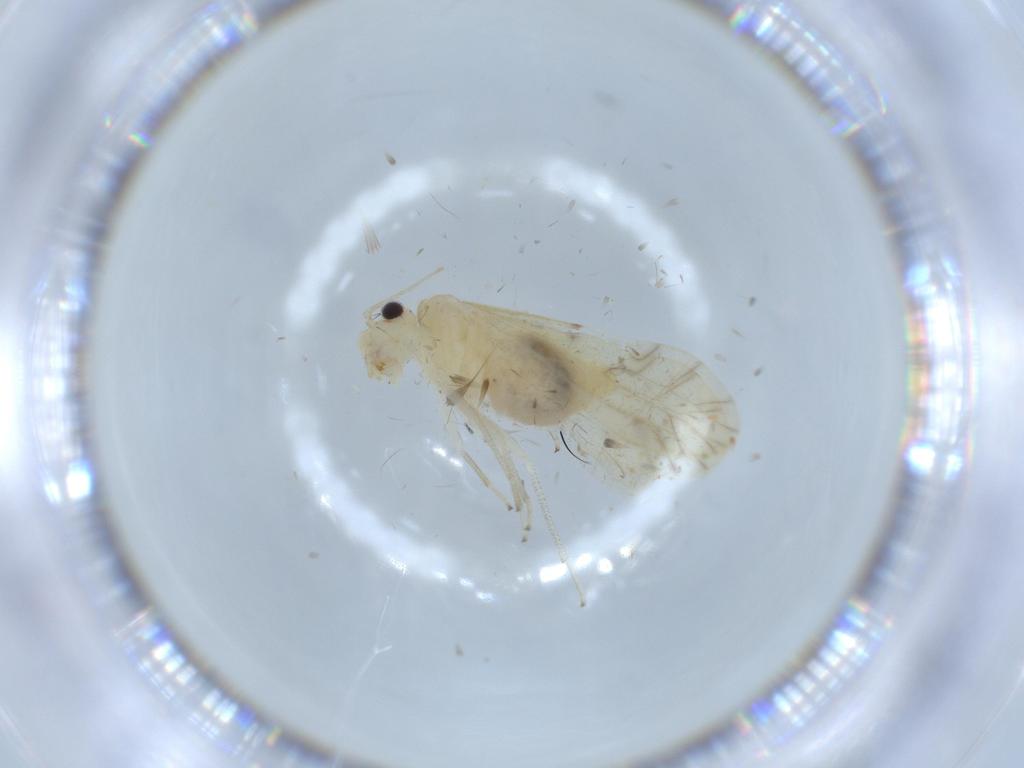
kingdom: Animalia
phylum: Arthropoda
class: Insecta
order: Psocodea
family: Caeciliusidae
